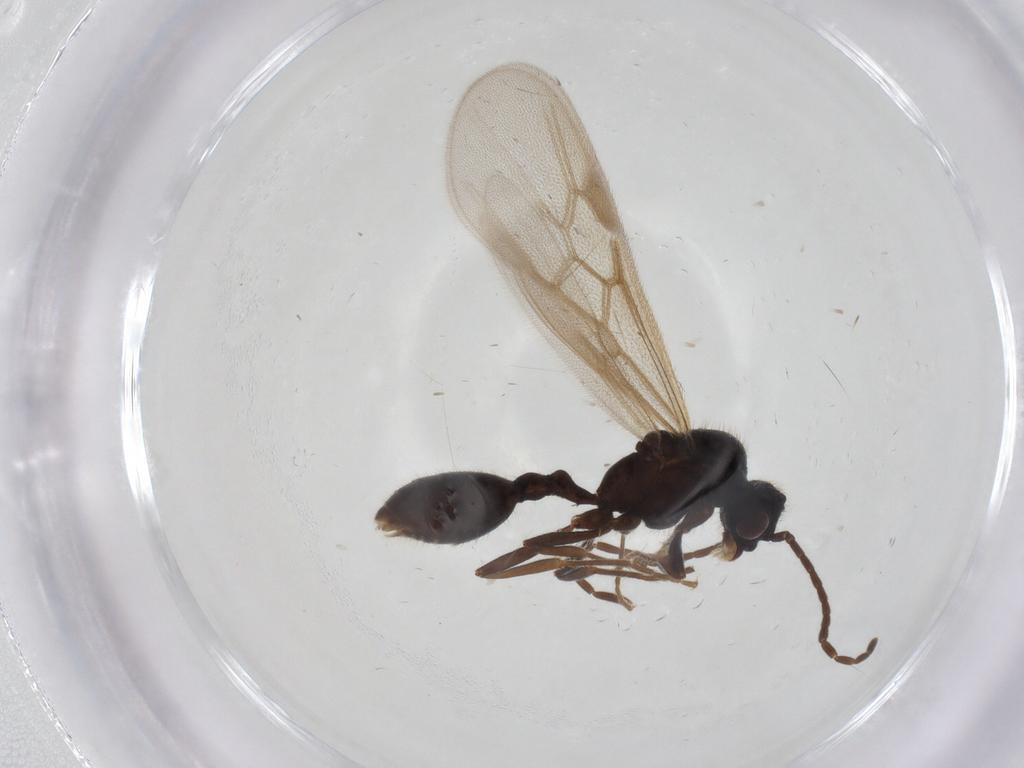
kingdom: Animalia
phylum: Arthropoda
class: Insecta
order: Hymenoptera
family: Formicidae
